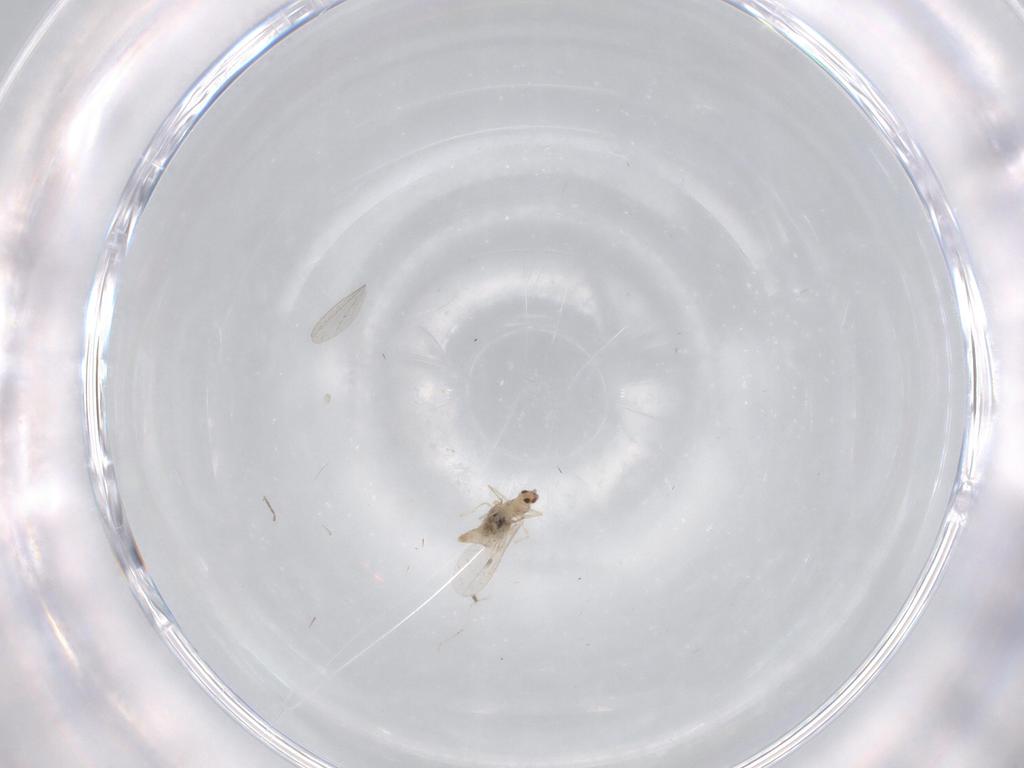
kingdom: Animalia
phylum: Arthropoda
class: Insecta
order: Diptera
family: Cecidomyiidae
